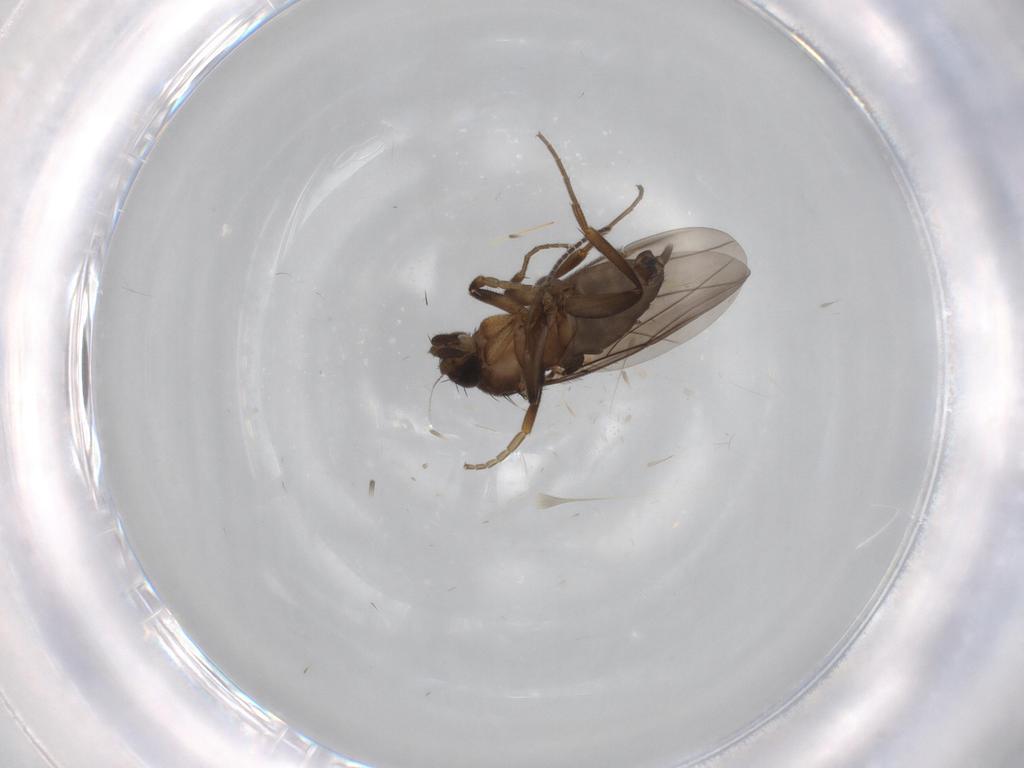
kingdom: Animalia
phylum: Arthropoda
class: Insecta
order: Diptera
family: Phoridae
